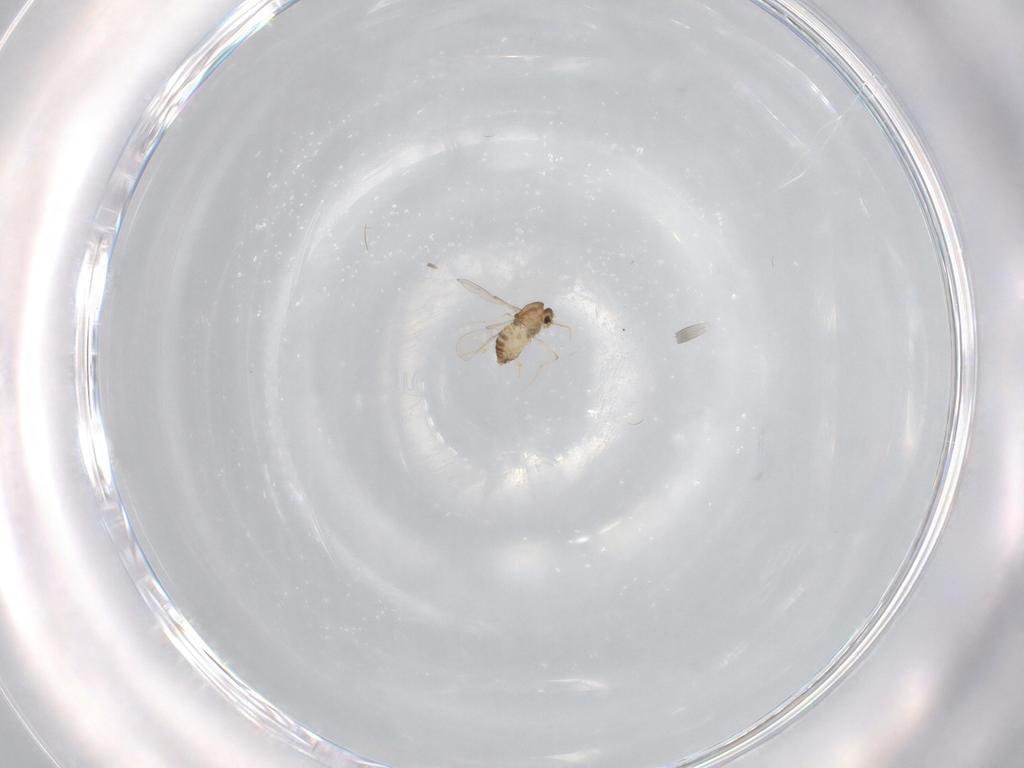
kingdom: Animalia
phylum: Arthropoda
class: Insecta
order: Diptera
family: Chironomidae
